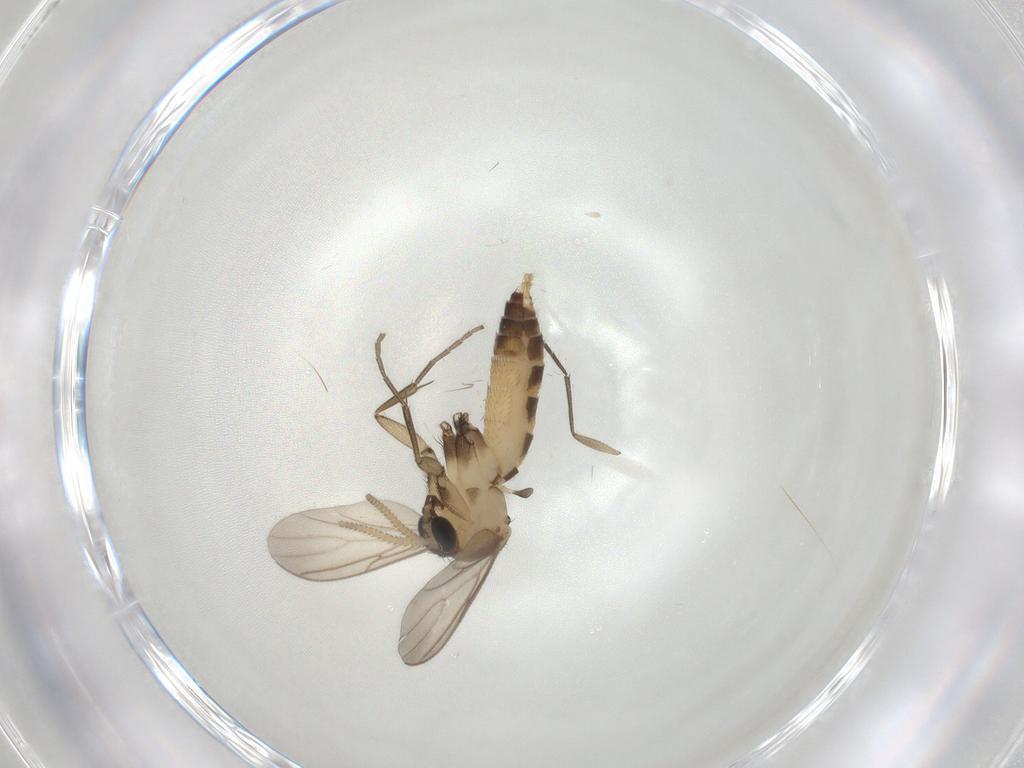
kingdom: Animalia
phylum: Arthropoda
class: Insecta
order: Diptera
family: Mycetophilidae
